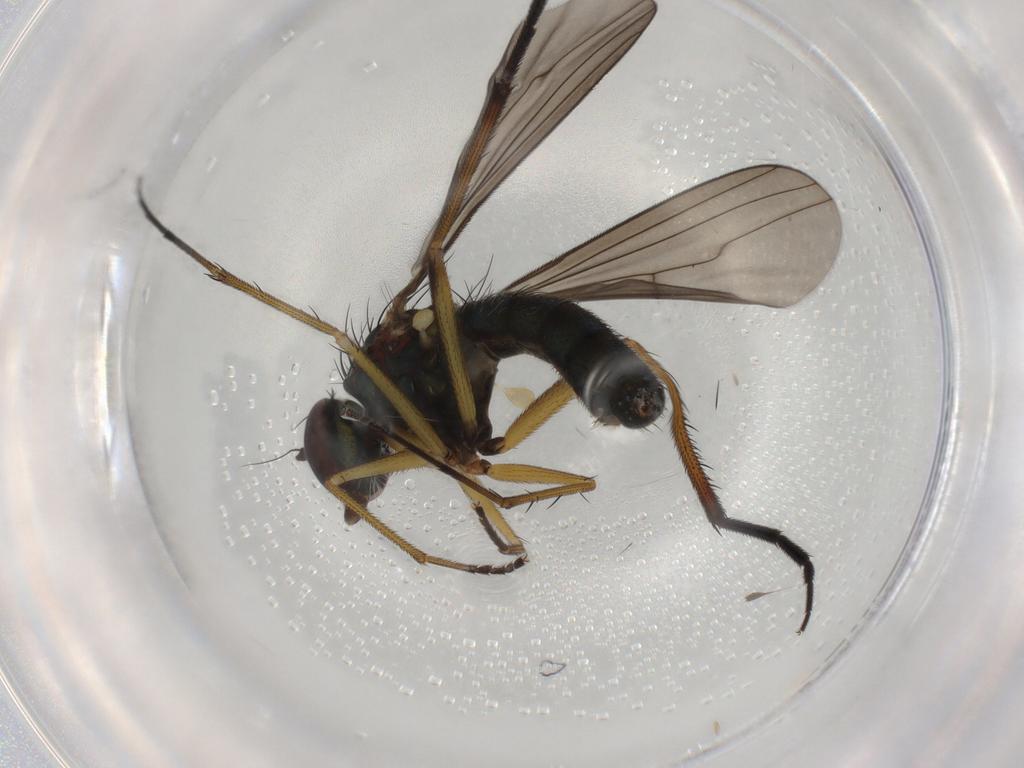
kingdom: Animalia
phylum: Arthropoda
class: Insecta
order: Diptera
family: Dolichopodidae
